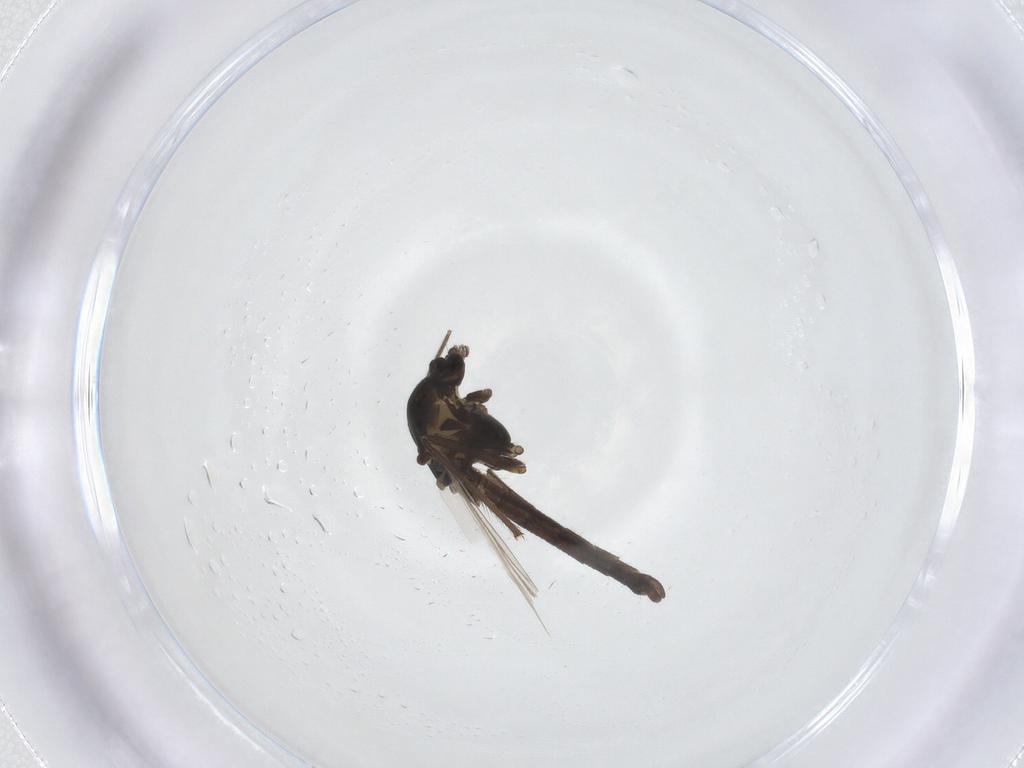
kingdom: Animalia
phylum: Arthropoda
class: Insecta
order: Diptera
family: Chironomidae
